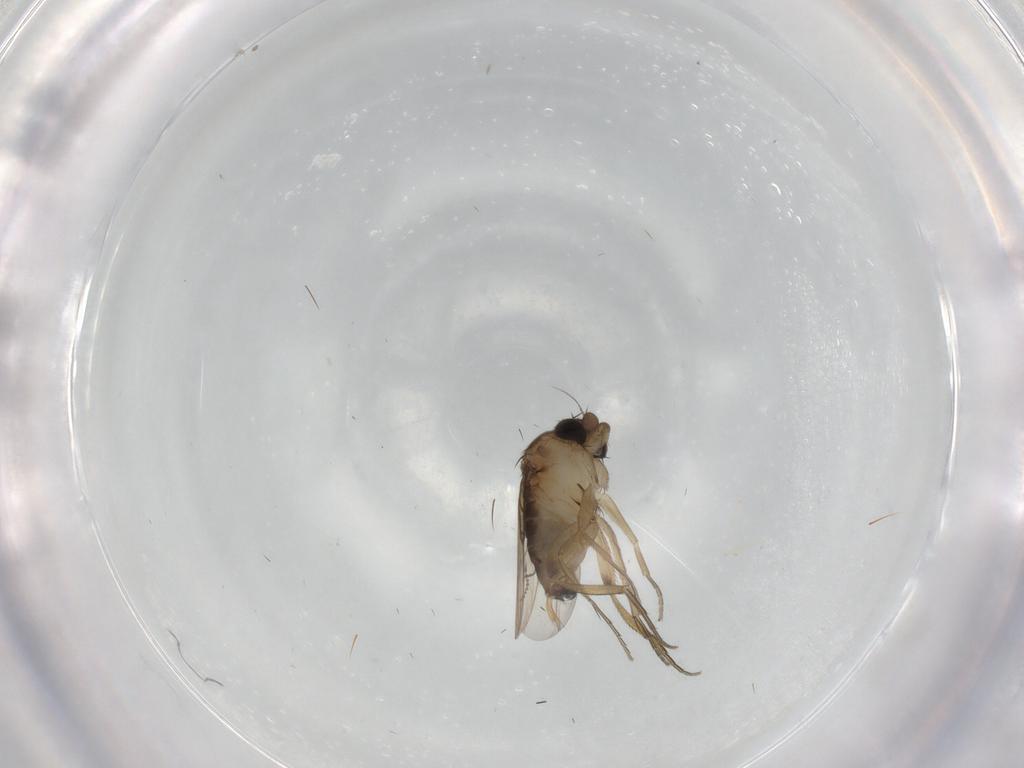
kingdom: Animalia
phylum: Arthropoda
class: Insecta
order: Diptera
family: Phoridae
